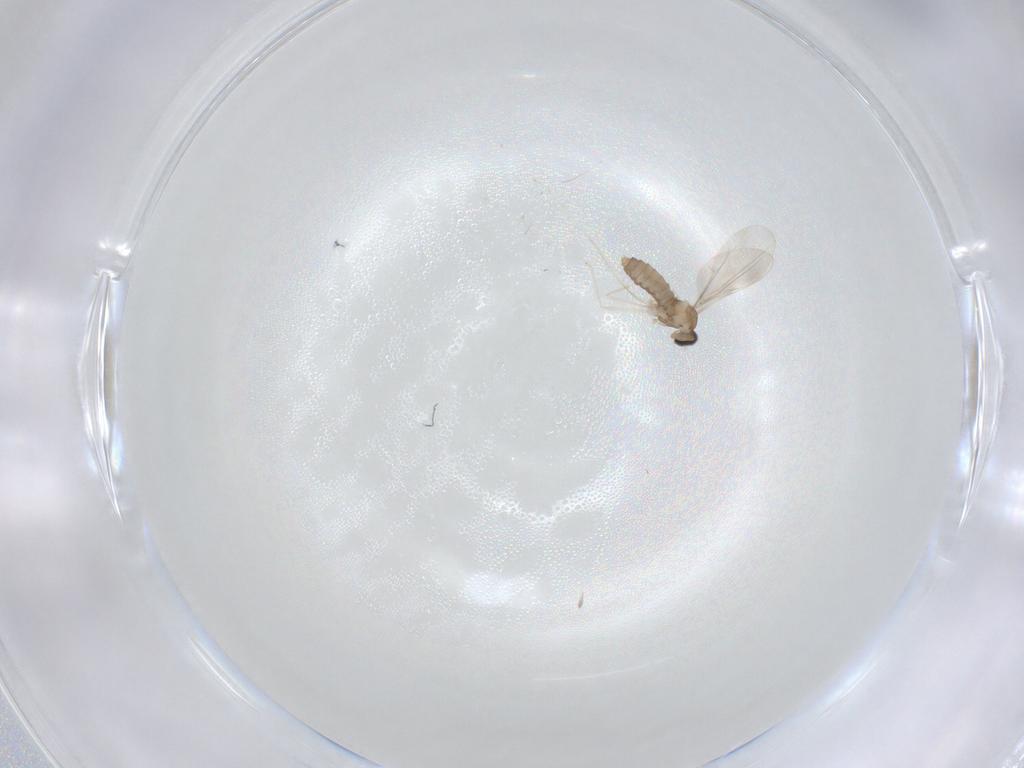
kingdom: Animalia
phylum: Arthropoda
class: Insecta
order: Diptera
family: Cecidomyiidae
